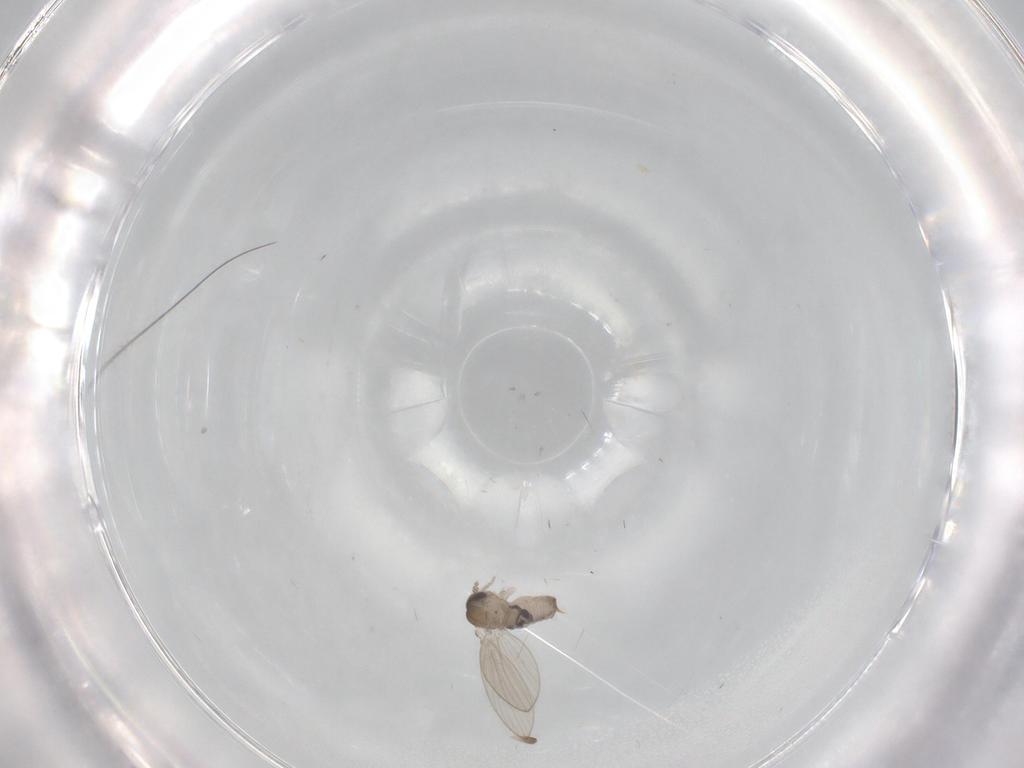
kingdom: Animalia
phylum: Arthropoda
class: Insecta
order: Diptera
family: Psychodidae
